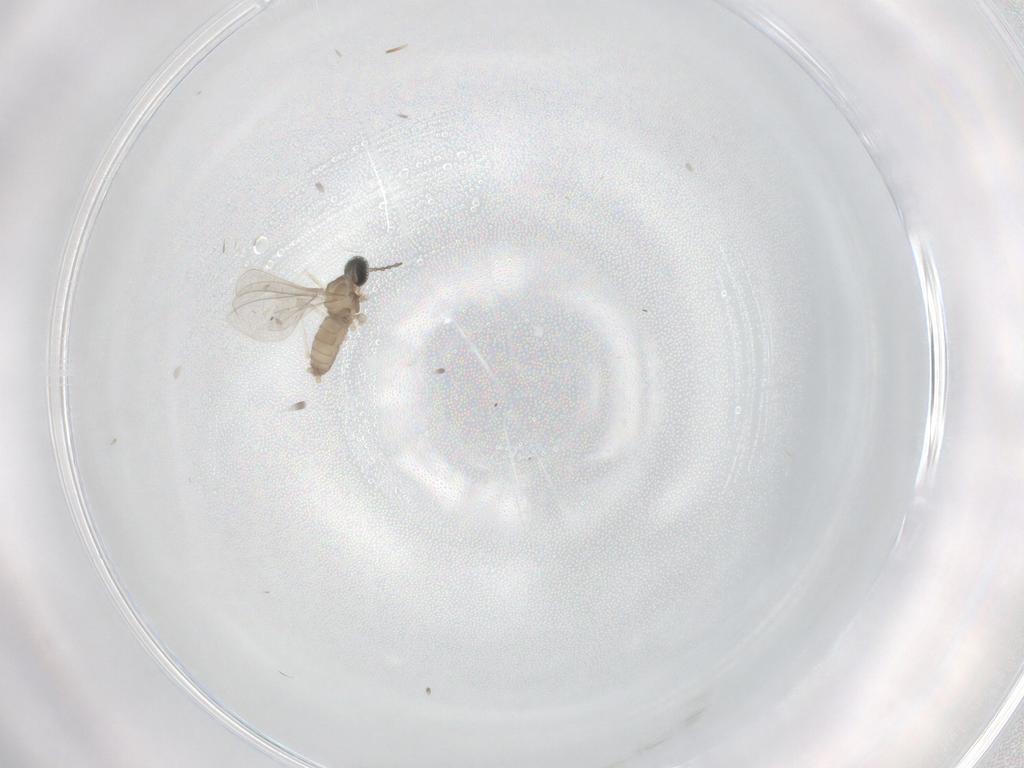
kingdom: Animalia
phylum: Arthropoda
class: Insecta
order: Diptera
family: Cecidomyiidae
